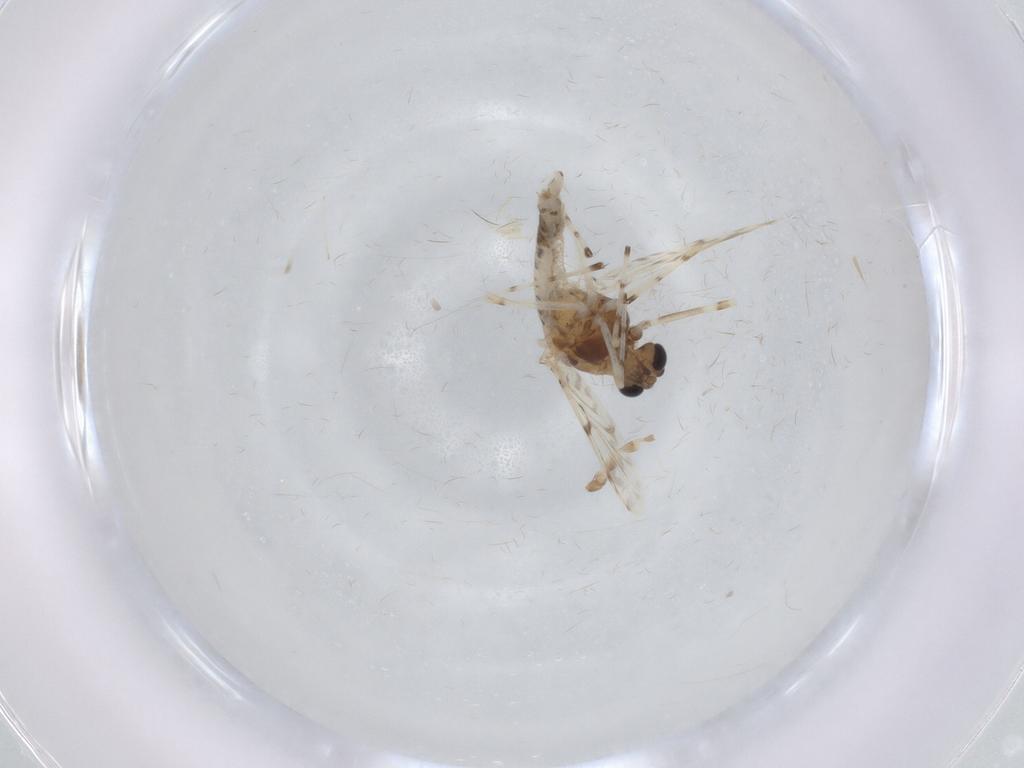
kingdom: Animalia
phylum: Arthropoda
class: Insecta
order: Diptera
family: Chironomidae
